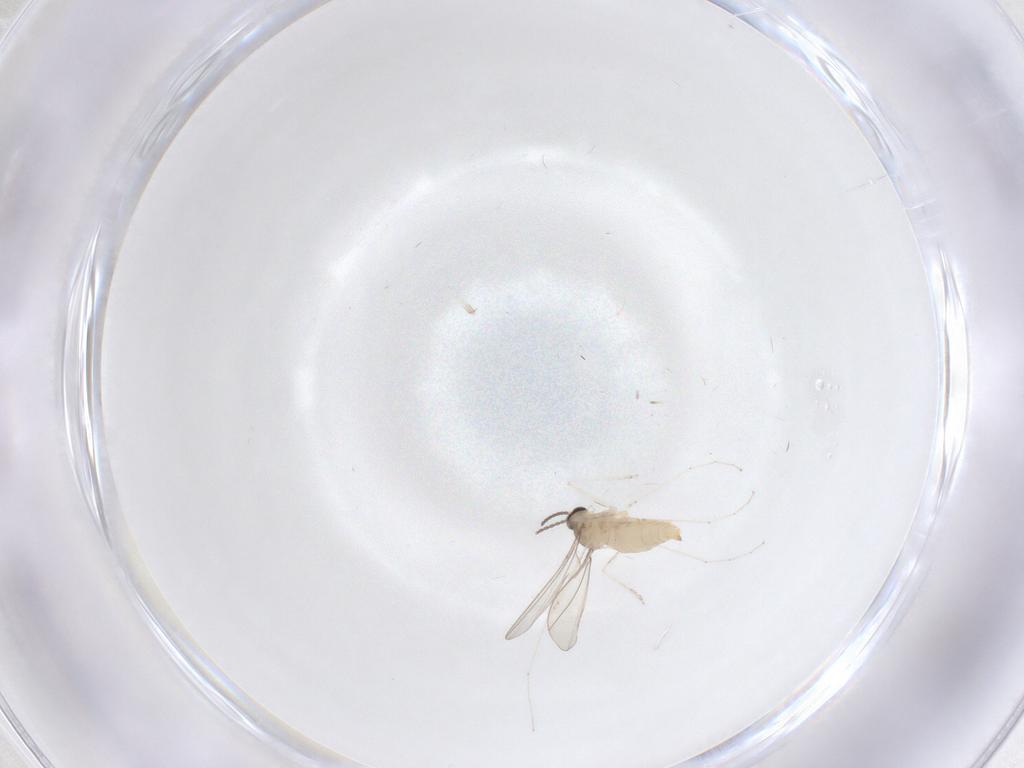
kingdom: Animalia
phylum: Arthropoda
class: Insecta
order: Diptera
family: Cecidomyiidae
